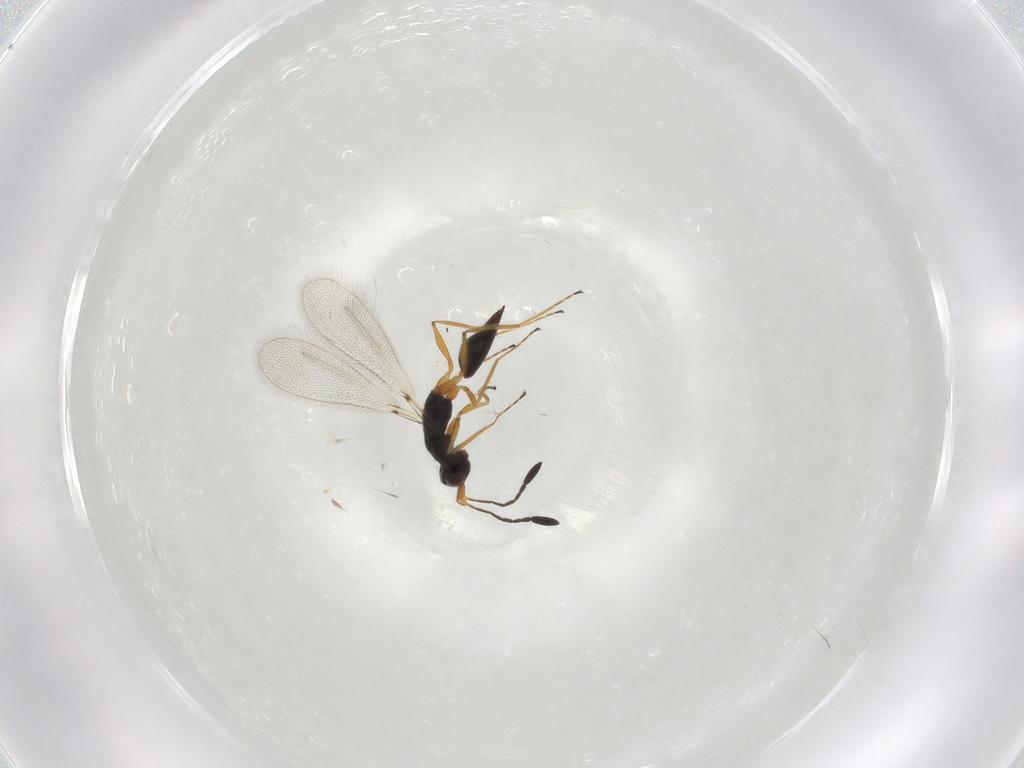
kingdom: Animalia
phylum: Arthropoda
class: Insecta
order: Hymenoptera
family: Mymaridae
